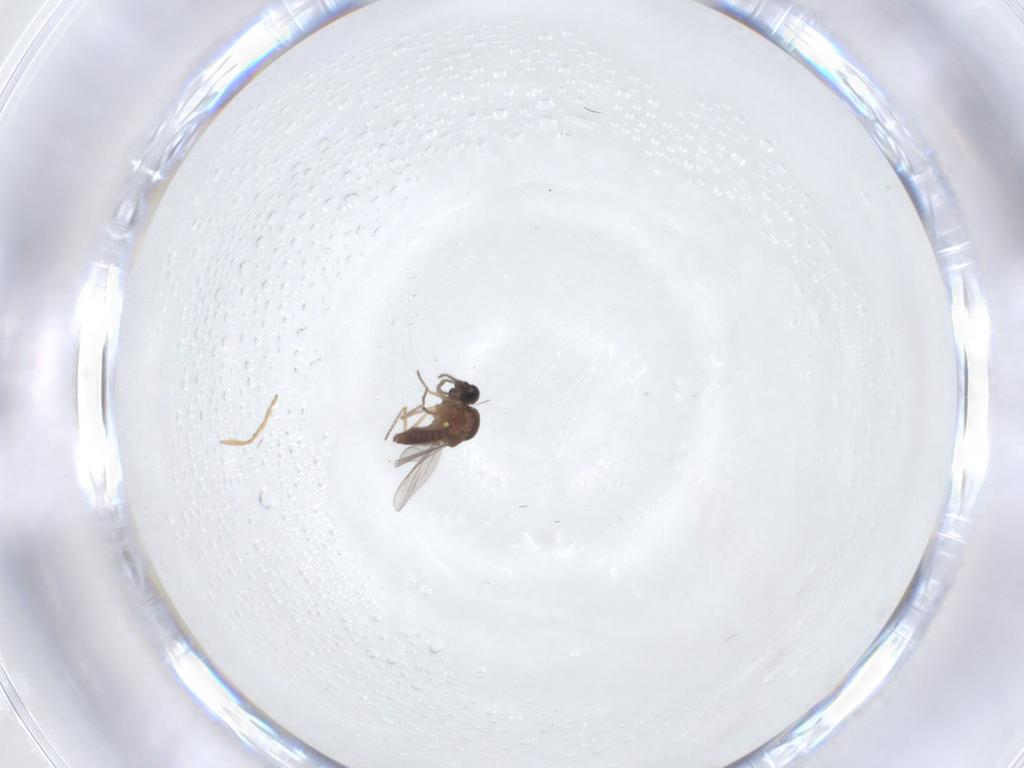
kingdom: Animalia
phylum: Arthropoda
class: Insecta
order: Diptera
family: Ceratopogonidae
